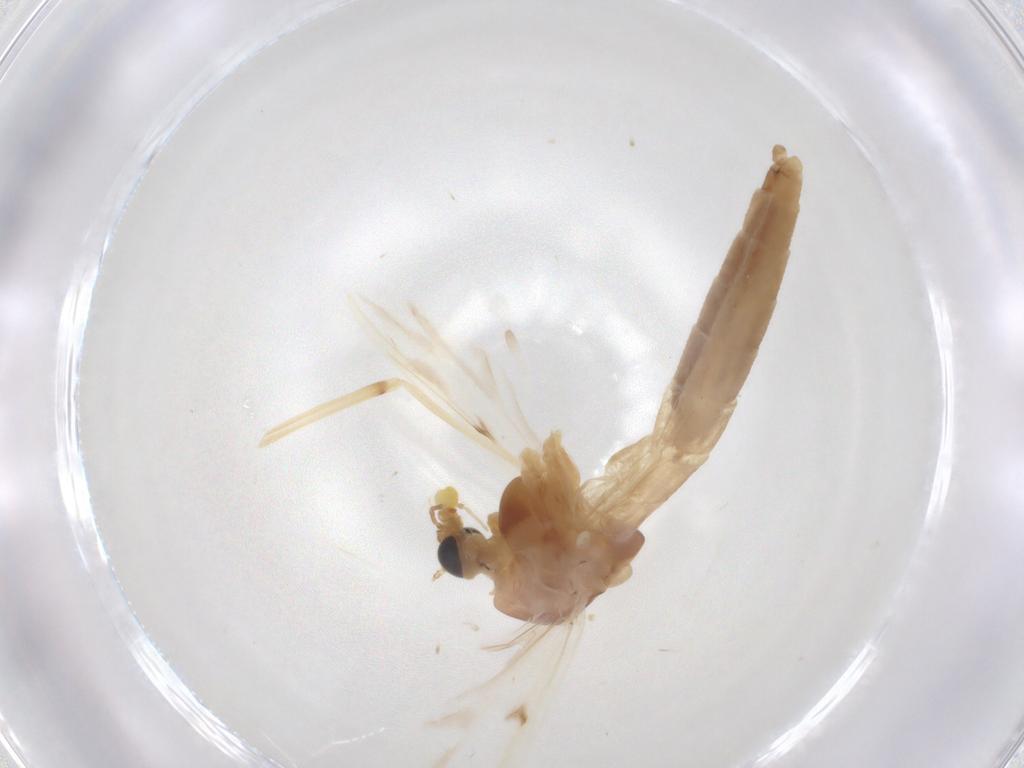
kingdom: Animalia
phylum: Arthropoda
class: Insecta
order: Diptera
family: Chironomidae
